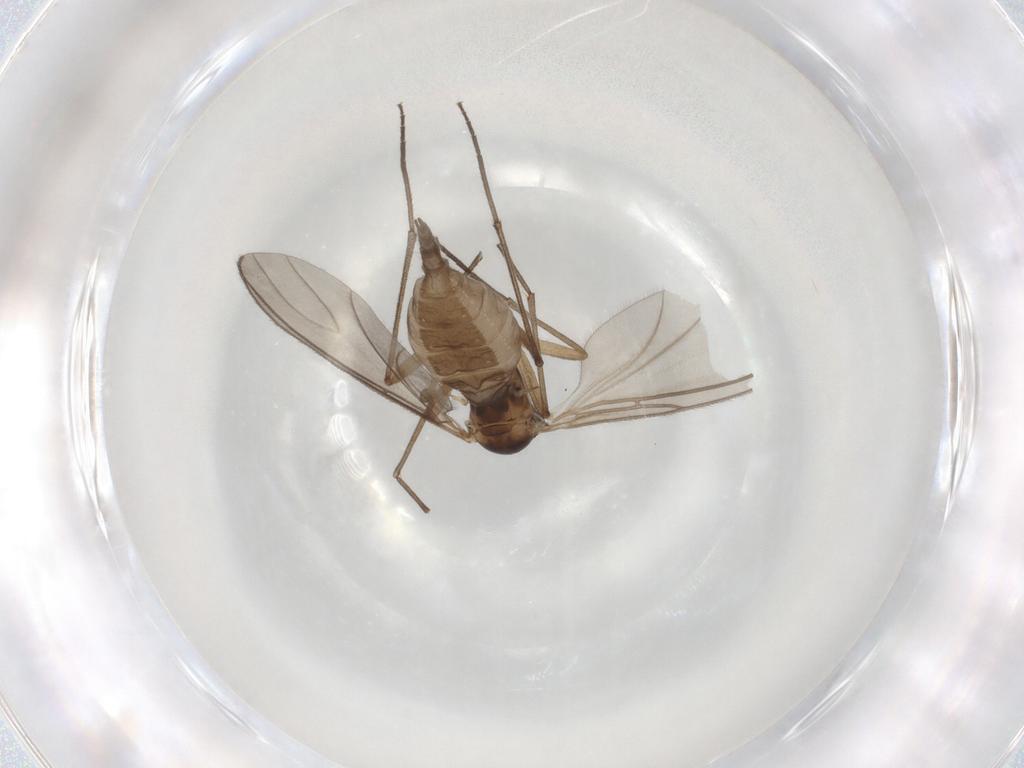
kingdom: Animalia
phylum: Arthropoda
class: Insecta
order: Diptera
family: Sciaridae
